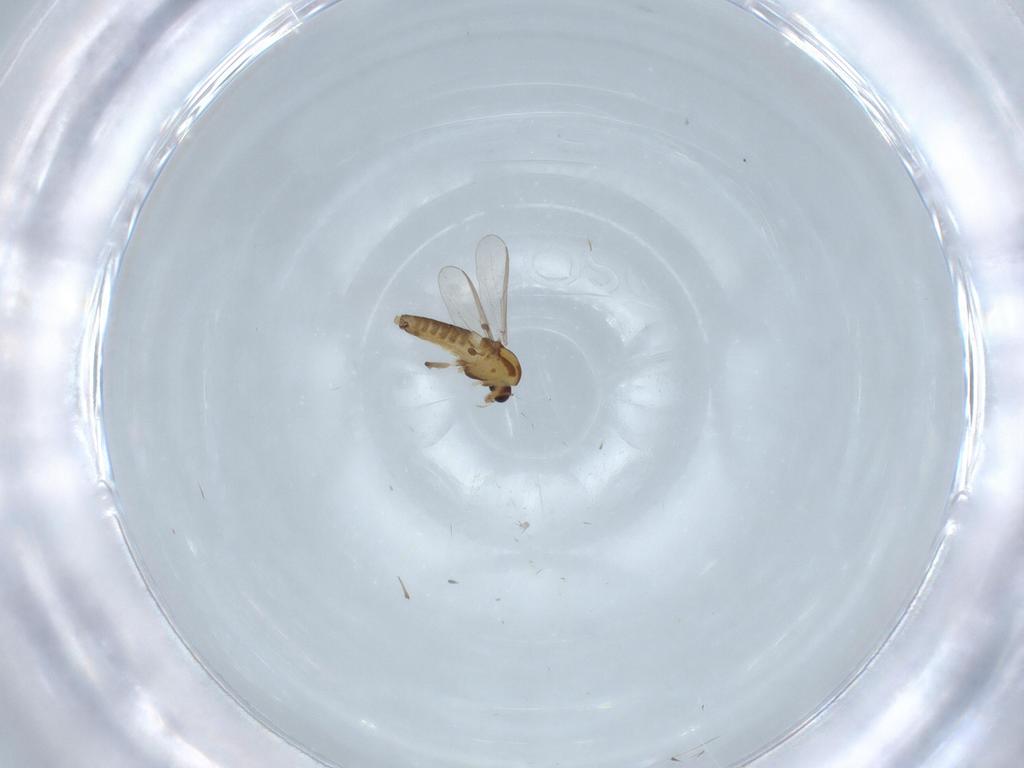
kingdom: Animalia
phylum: Arthropoda
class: Insecta
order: Diptera
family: Chironomidae
